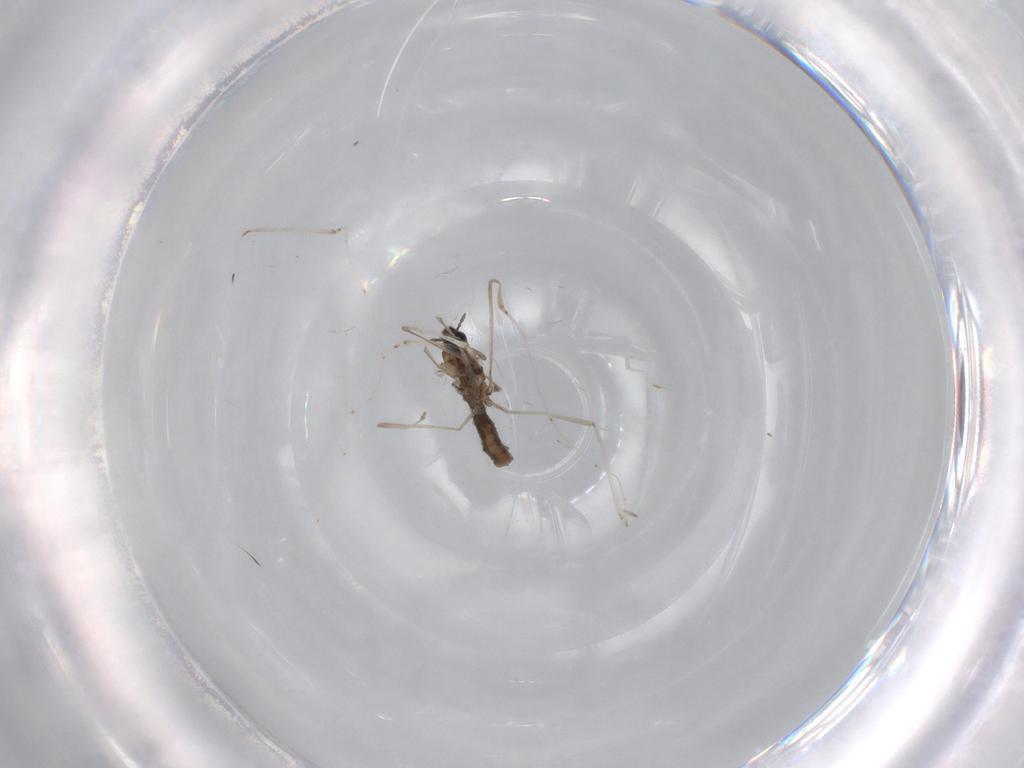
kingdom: Animalia
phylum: Arthropoda
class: Insecta
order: Diptera
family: Cecidomyiidae
